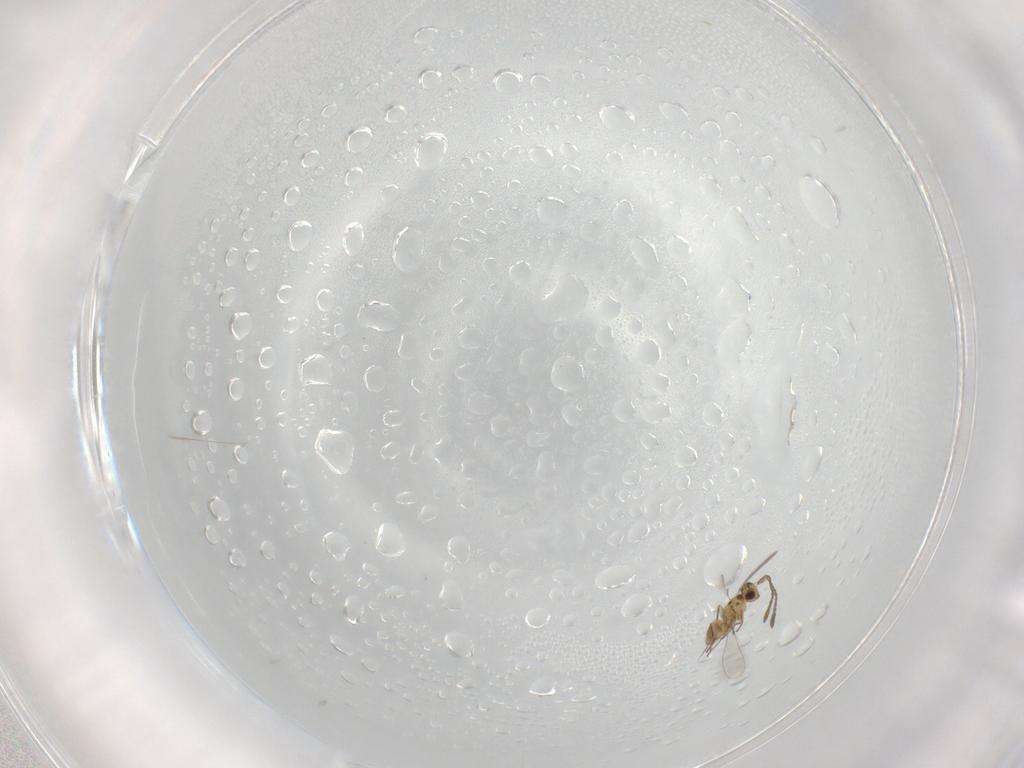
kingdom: Animalia
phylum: Arthropoda
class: Insecta
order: Hymenoptera
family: Mymaridae
